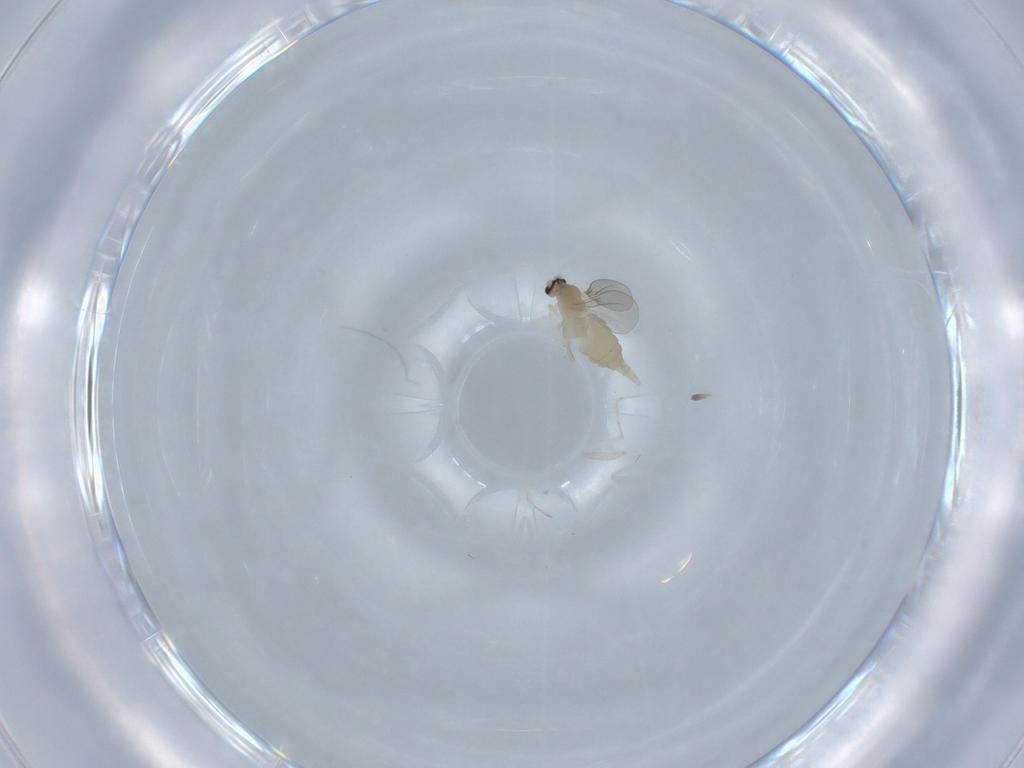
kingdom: Animalia
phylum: Arthropoda
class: Insecta
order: Diptera
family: Cecidomyiidae
